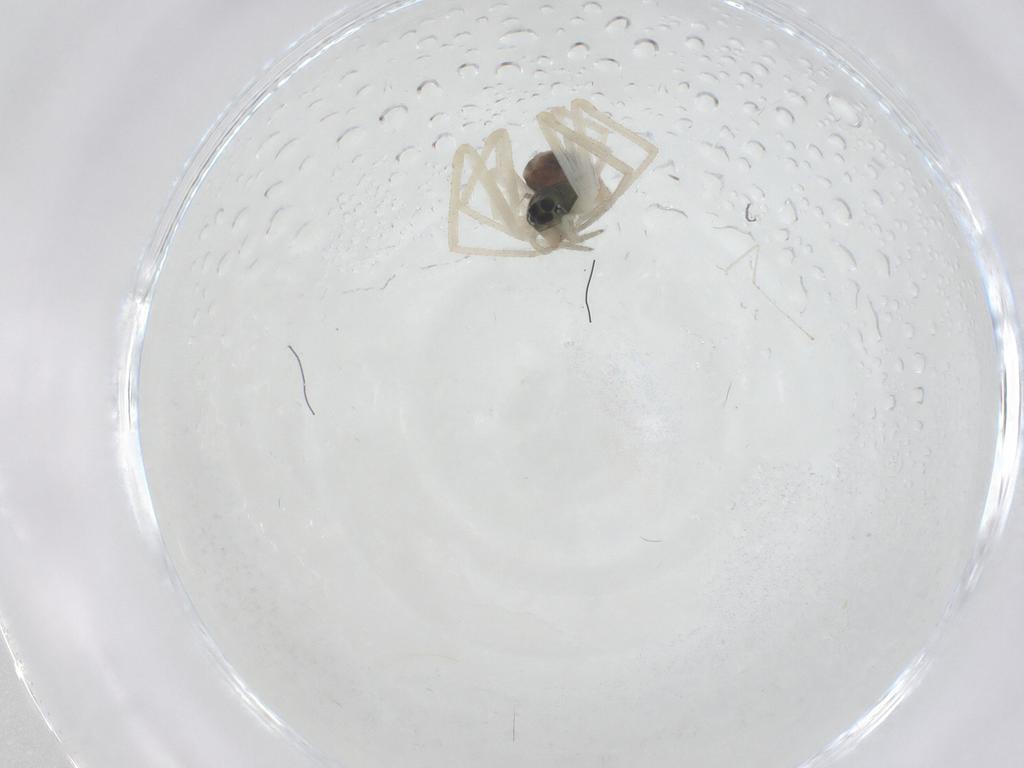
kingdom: Animalia
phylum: Arthropoda
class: Arachnida
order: Araneae
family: Linyphiidae
